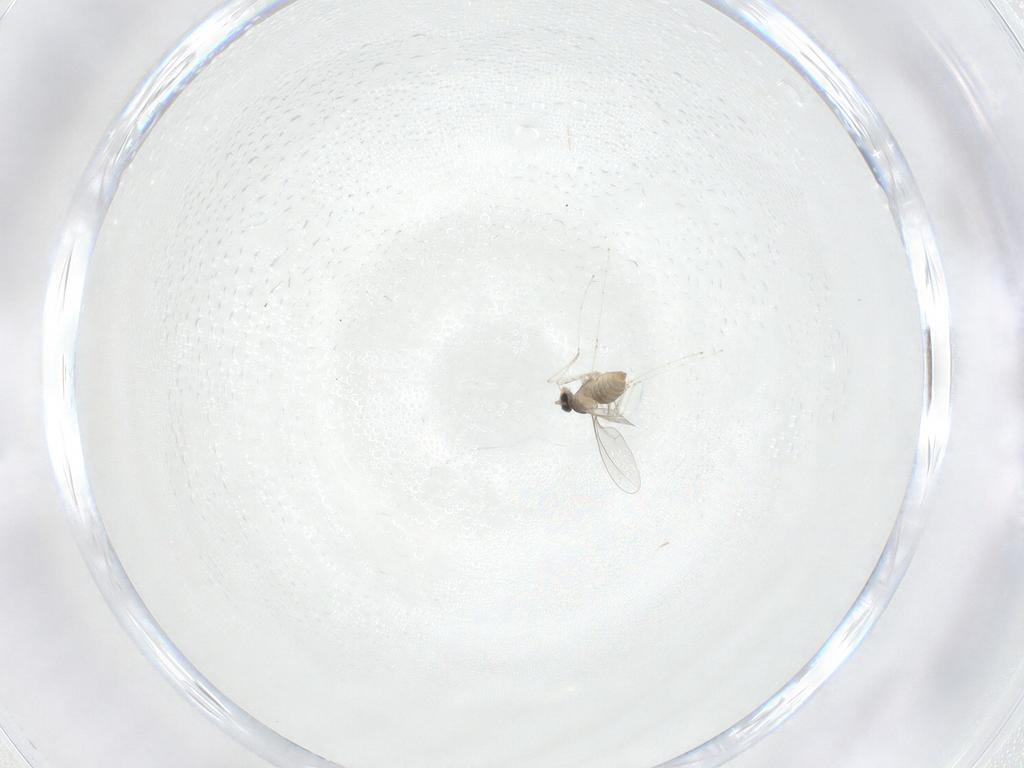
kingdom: Animalia
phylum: Arthropoda
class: Insecta
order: Diptera
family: Cecidomyiidae
